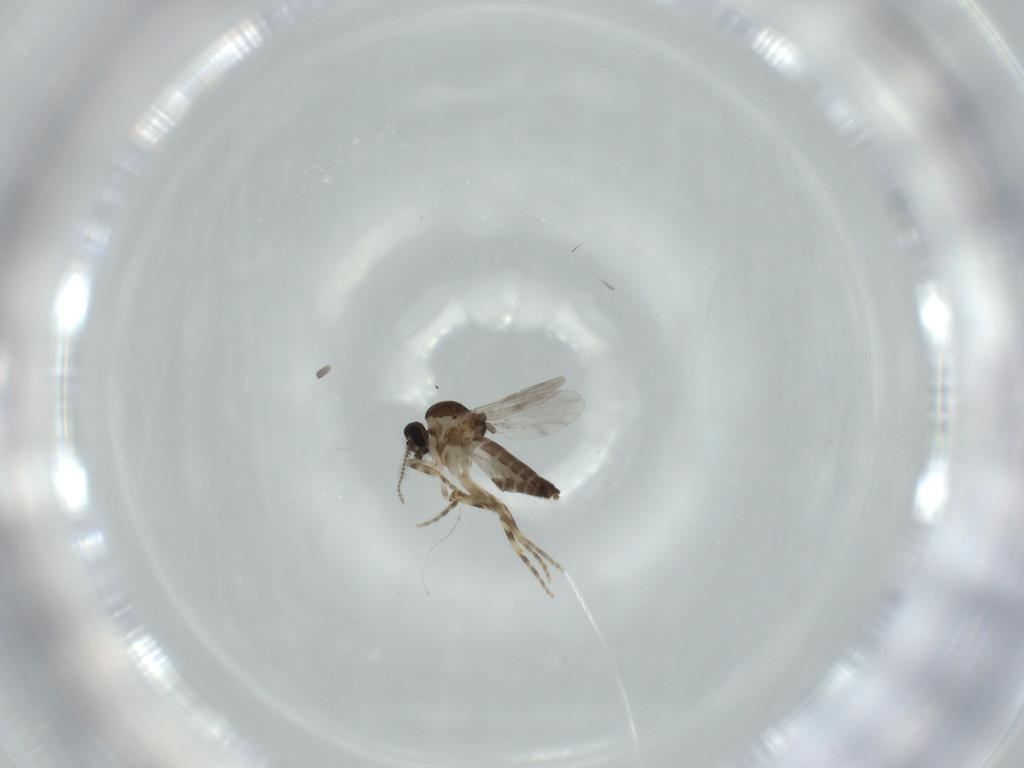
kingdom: Animalia
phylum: Arthropoda
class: Insecta
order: Diptera
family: Ceratopogonidae
